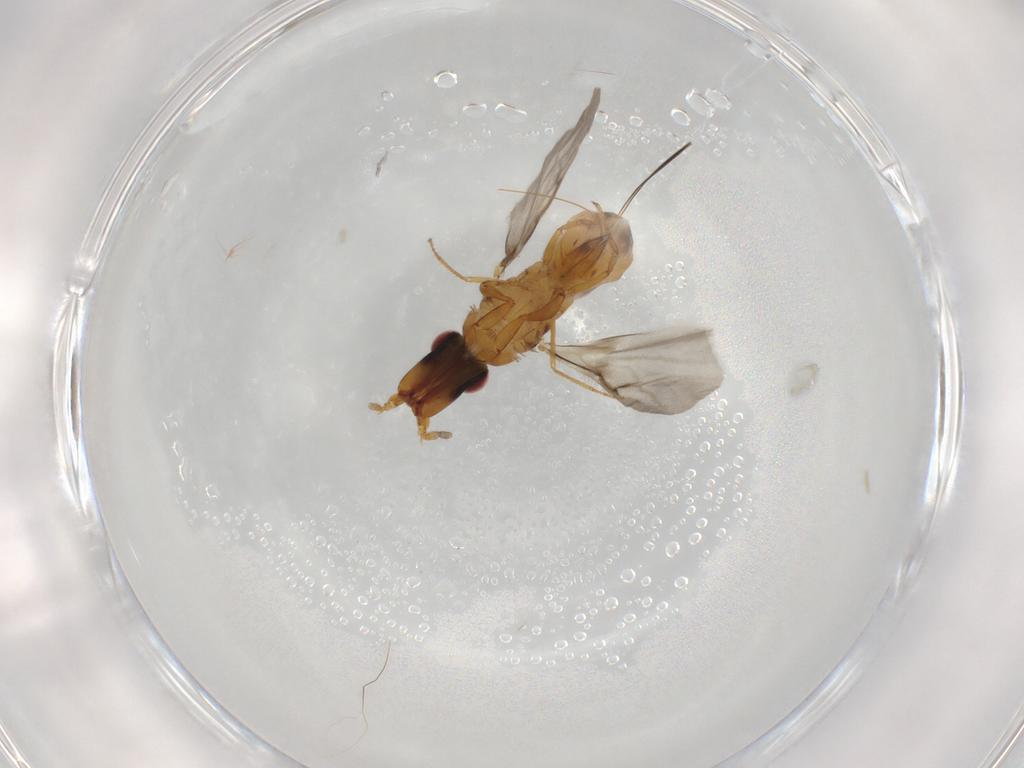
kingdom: Animalia
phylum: Arthropoda
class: Insecta
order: Hymenoptera
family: Agaonidae
